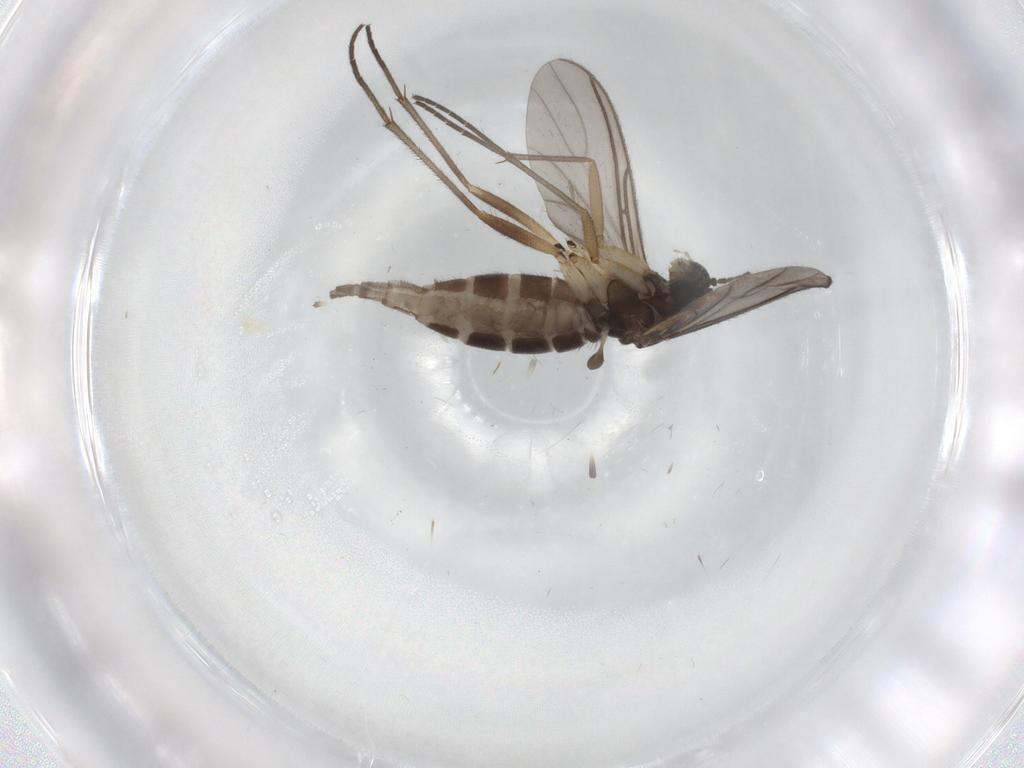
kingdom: Animalia
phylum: Arthropoda
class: Insecta
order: Diptera
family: Sciaridae
